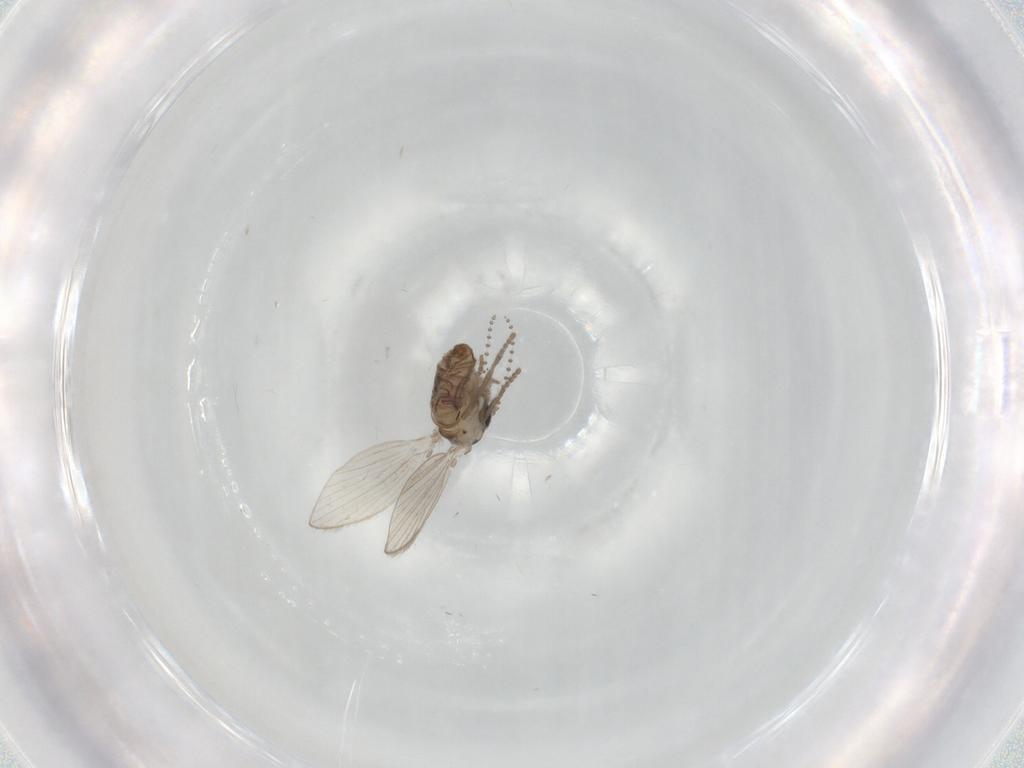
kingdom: Animalia
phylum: Arthropoda
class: Insecta
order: Diptera
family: Psychodidae
